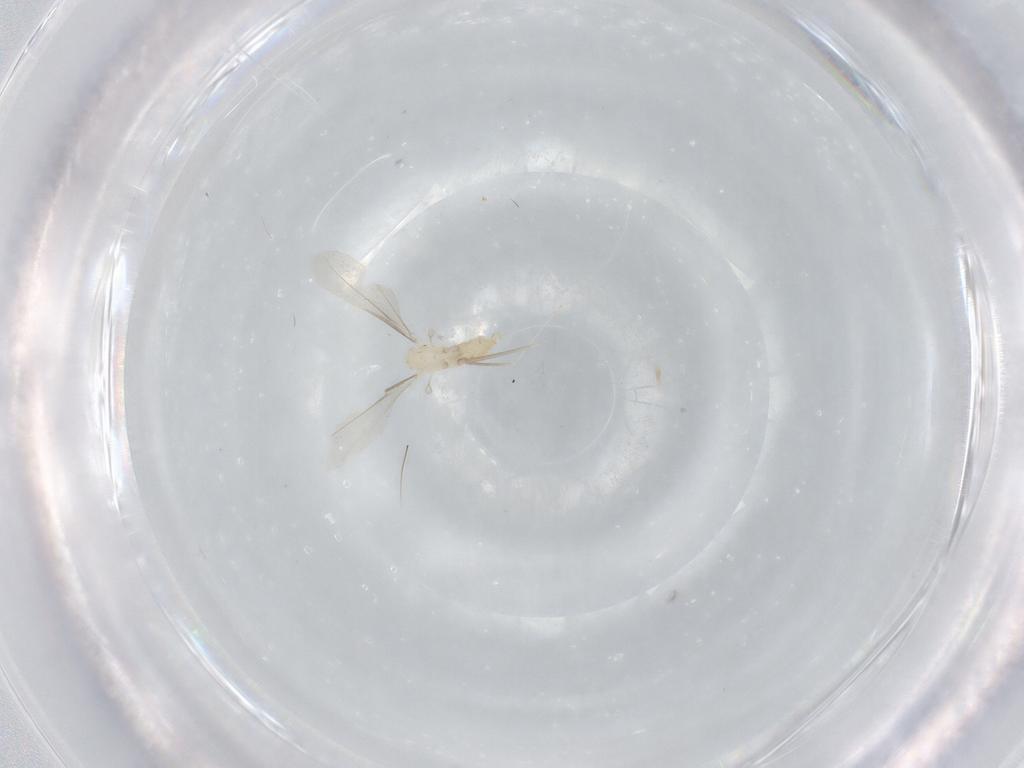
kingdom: Animalia
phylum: Arthropoda
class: Insecta
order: Diptera
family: Cecidomyiidae
